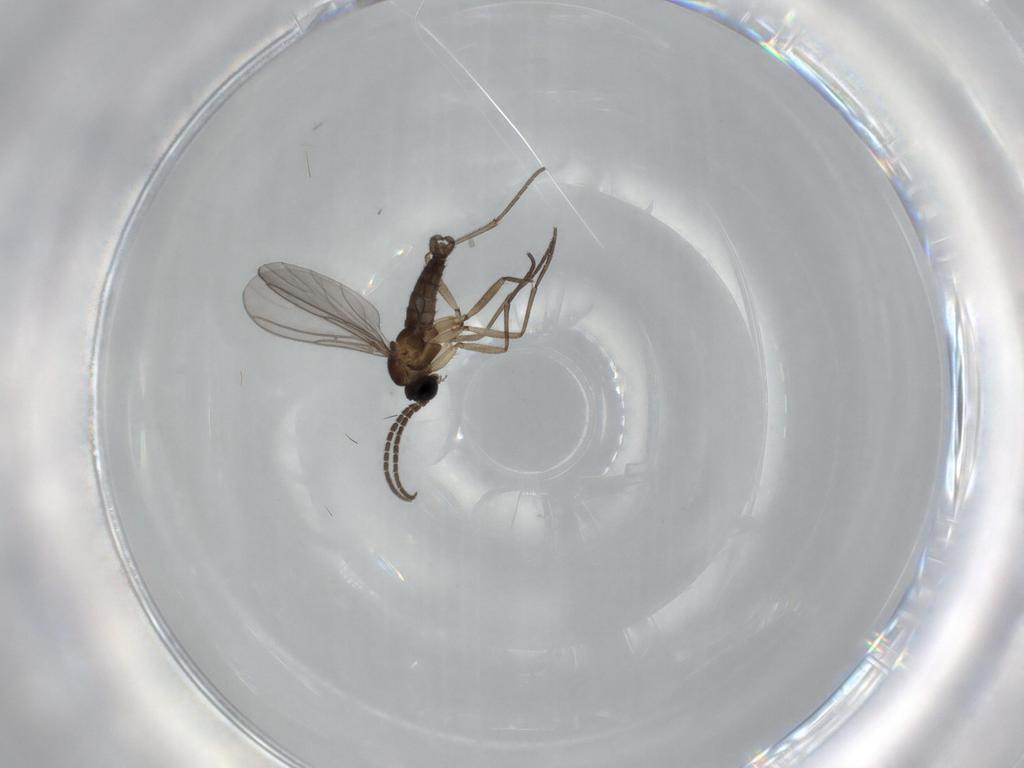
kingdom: Animalia
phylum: Arthropoda
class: Insecta
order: Diptera
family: Sciaridae
